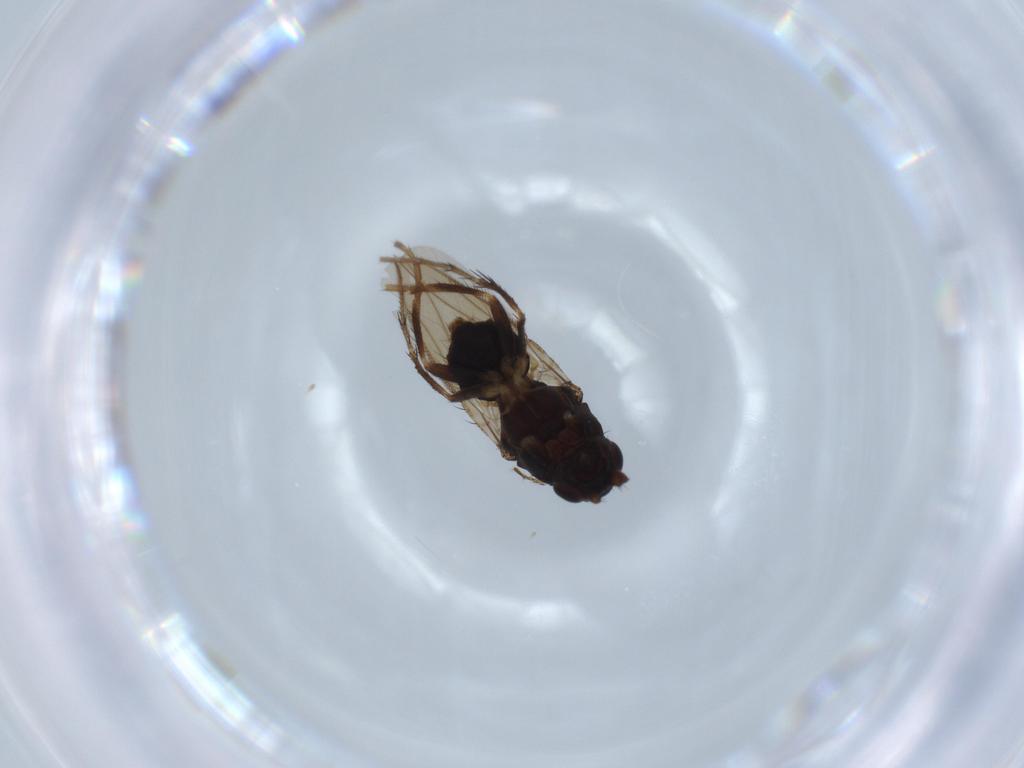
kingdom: Animalia
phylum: Arthropoda
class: Insecta
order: Diptera
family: Sphaeroceridae
